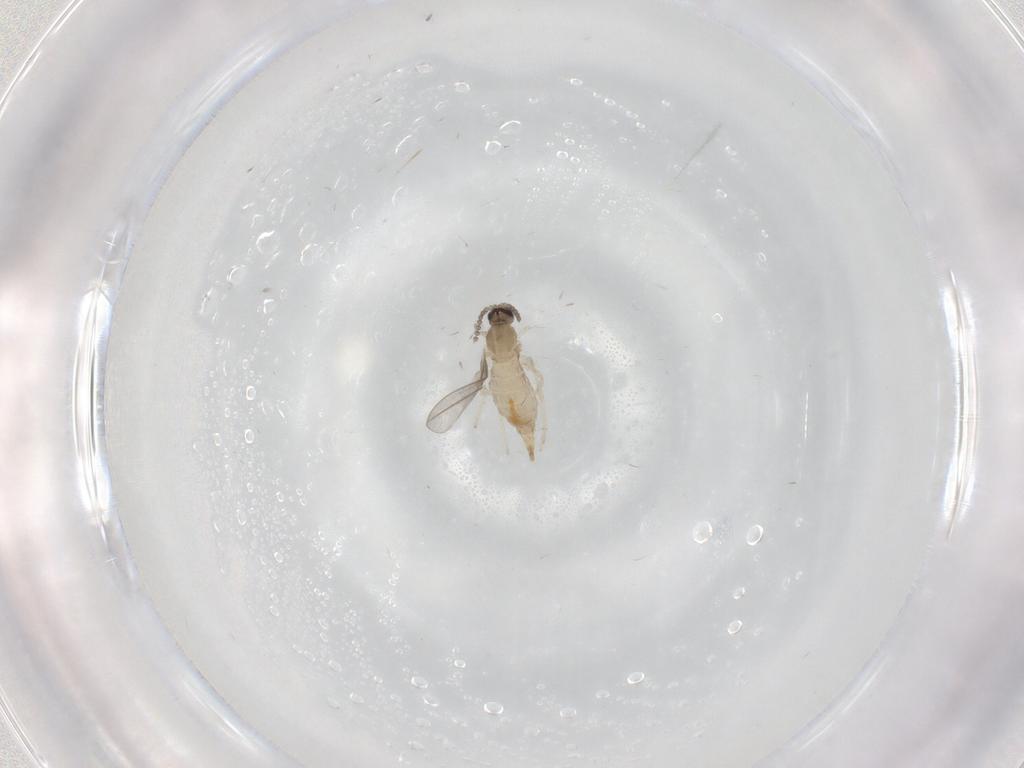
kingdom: Animalia
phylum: Arthropoda
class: Insecta
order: Diptera
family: Cecidomyiidae
